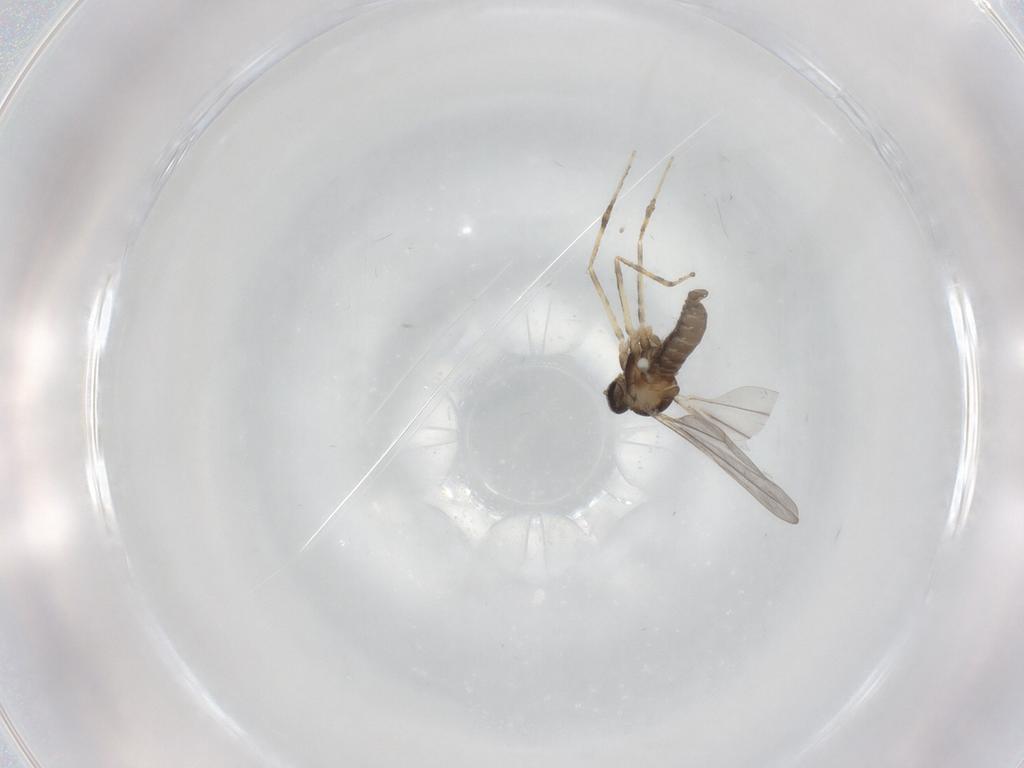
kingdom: Animalia
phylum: Arthropoda
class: Insecta
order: Diptera
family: Cecidomyiidae
